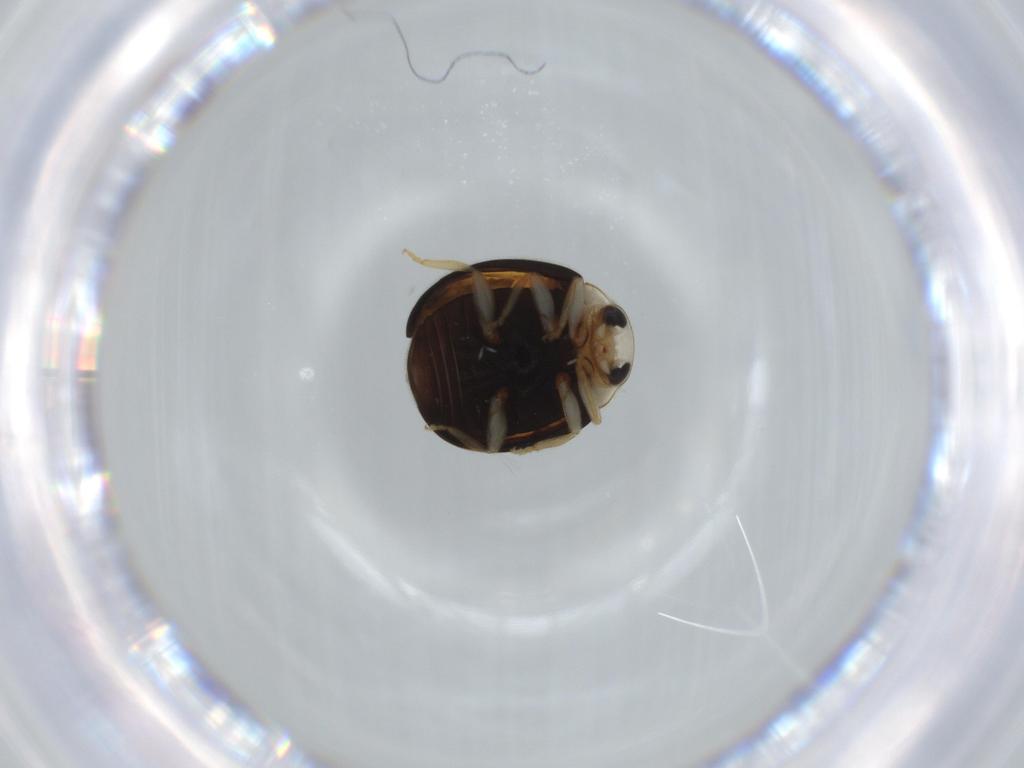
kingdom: Animalia
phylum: Arthropoda
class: Insecta
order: Coleoptera
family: Coccinellidae
